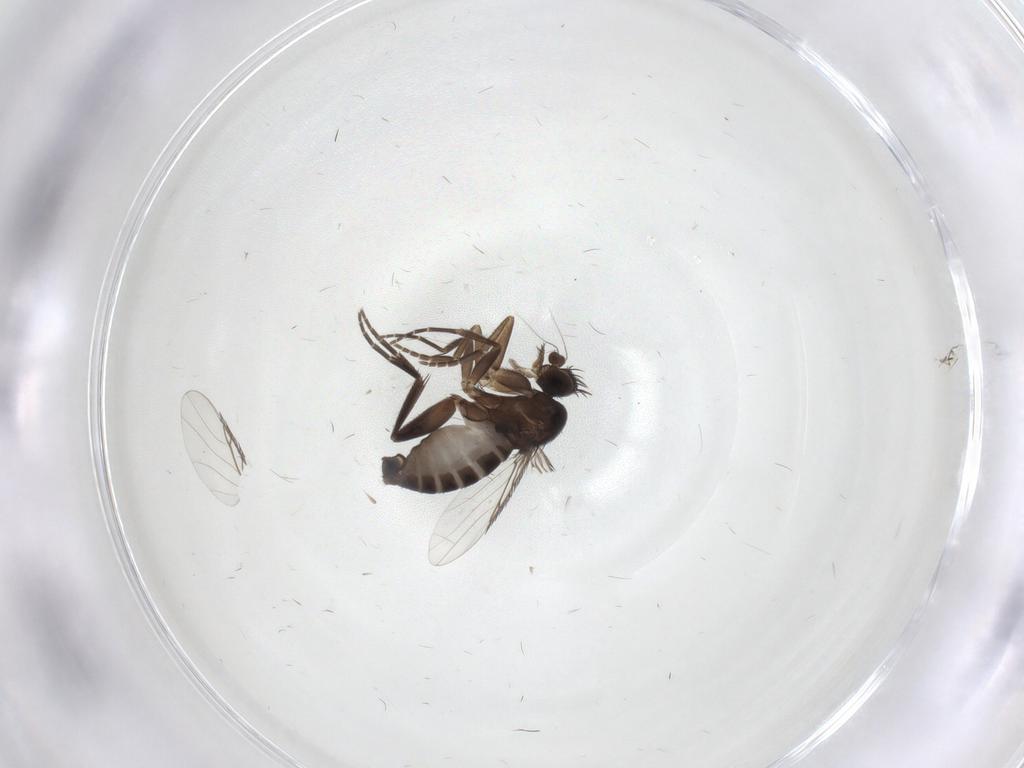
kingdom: Animalia
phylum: Arthropoda
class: Insecta
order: Diptera
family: Phoridae
